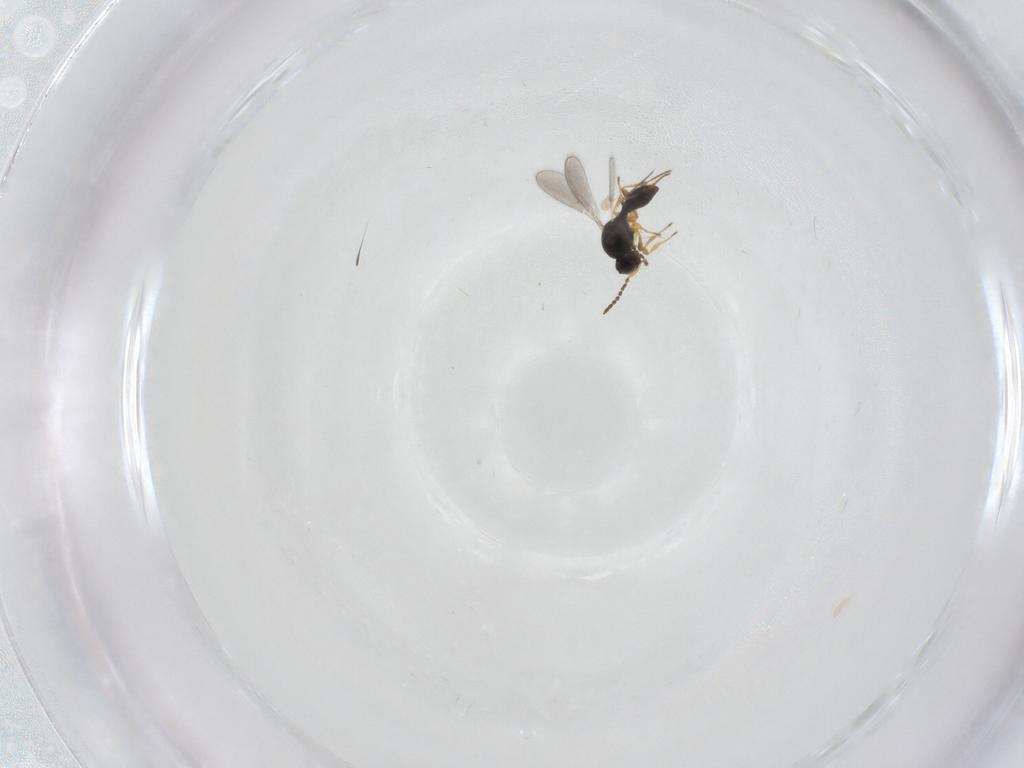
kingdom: Animalia
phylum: Arthropoda
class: Insecta
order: Hymenoptera
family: Platygastridae
